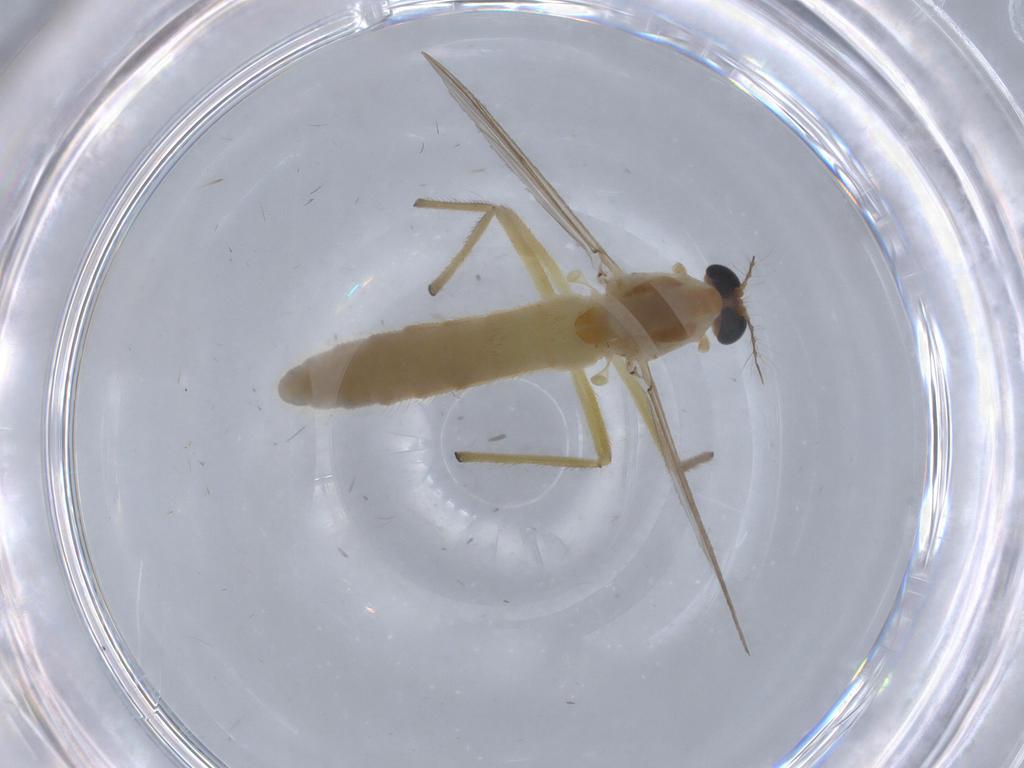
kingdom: Animalia
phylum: Arthropoda
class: Insecta
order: Diptera
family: Chironomidae
